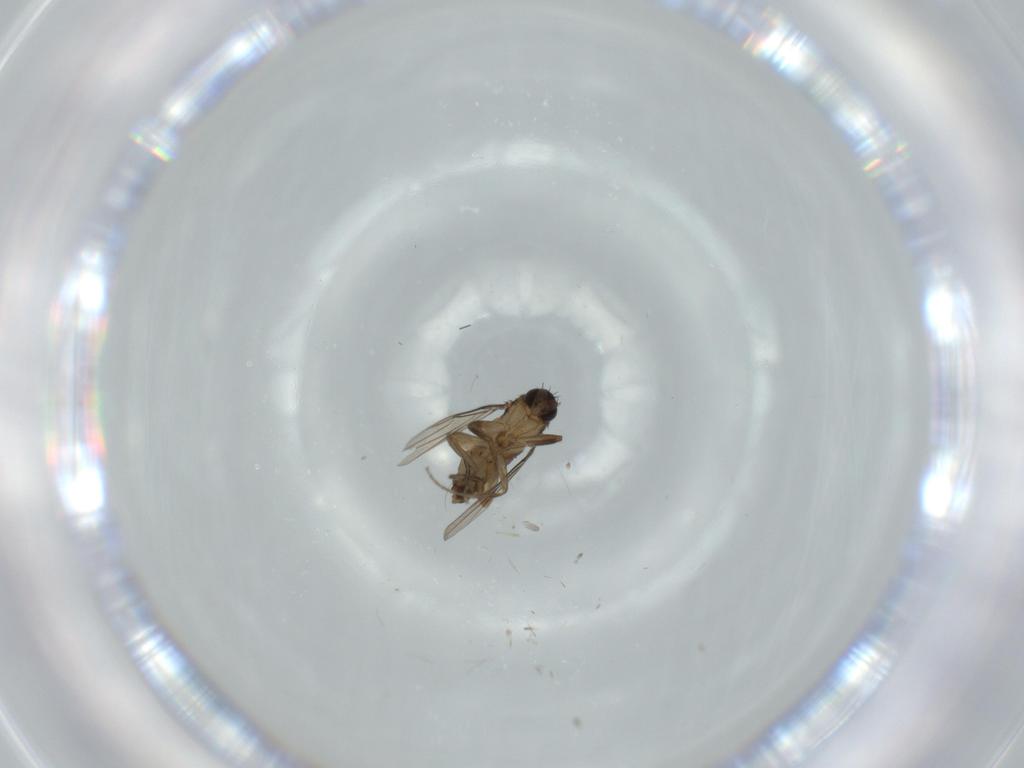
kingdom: Animalia
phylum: Arthropoda
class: Insecta
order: Diptera
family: Phoridae
